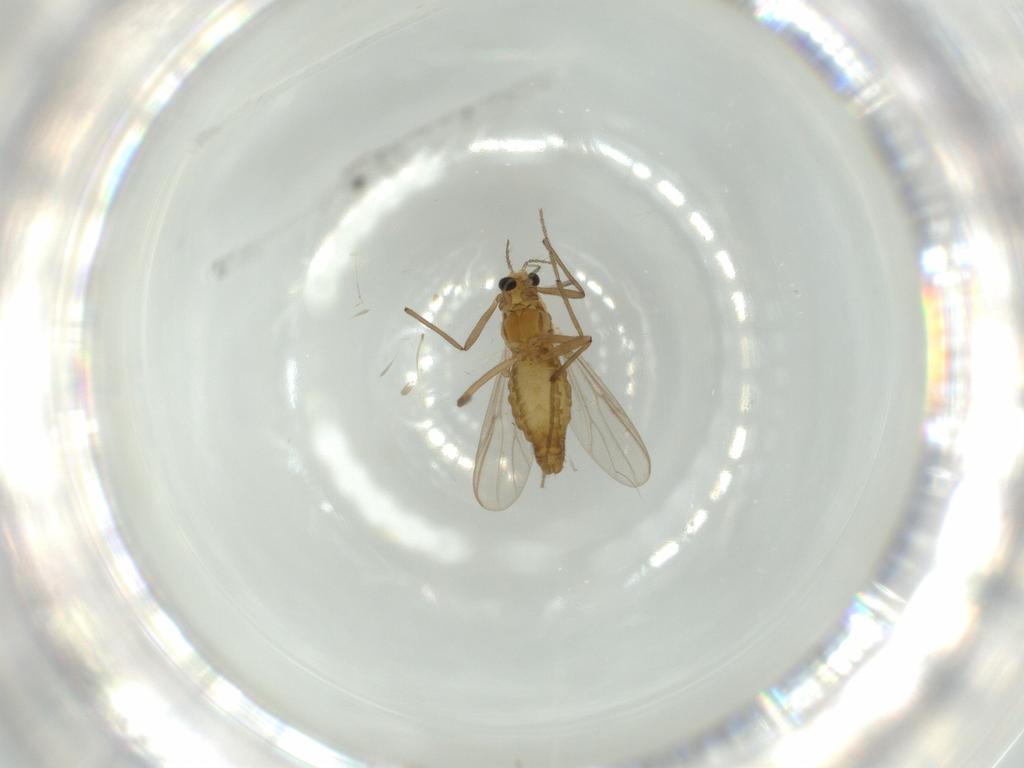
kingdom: Animalia
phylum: Arthropoda
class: Insecta
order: Diptera
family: Chironomidae
